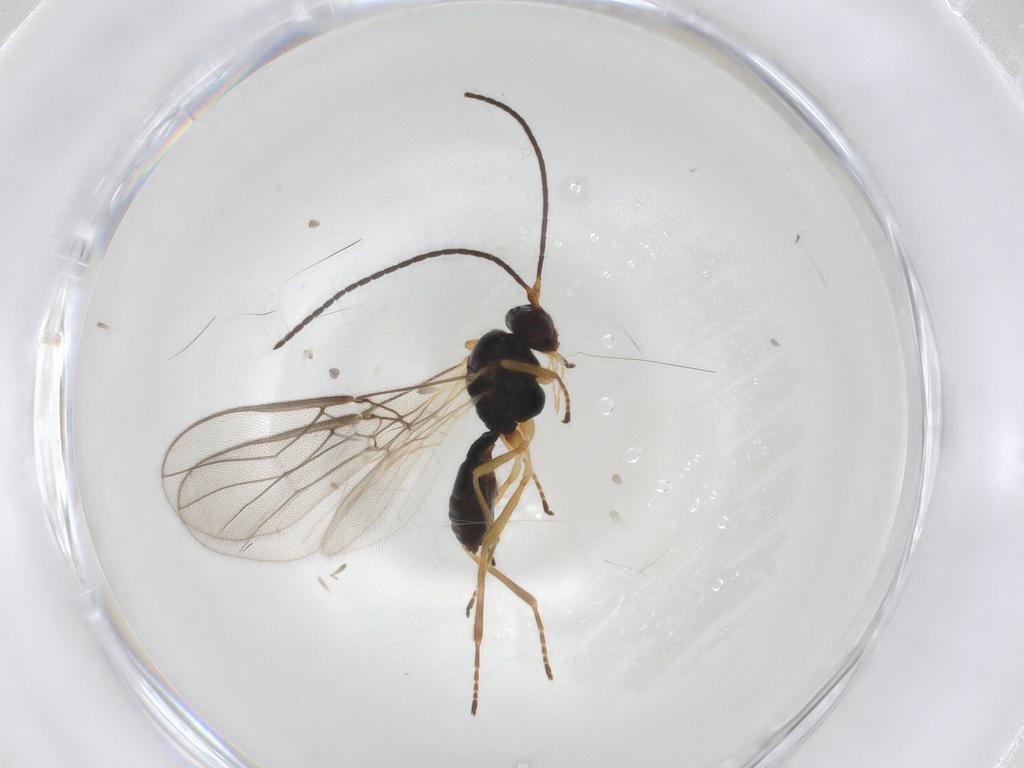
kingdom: Animalia
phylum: Arthropoda
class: Insecta
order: Hymenoptera
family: Braconidae
